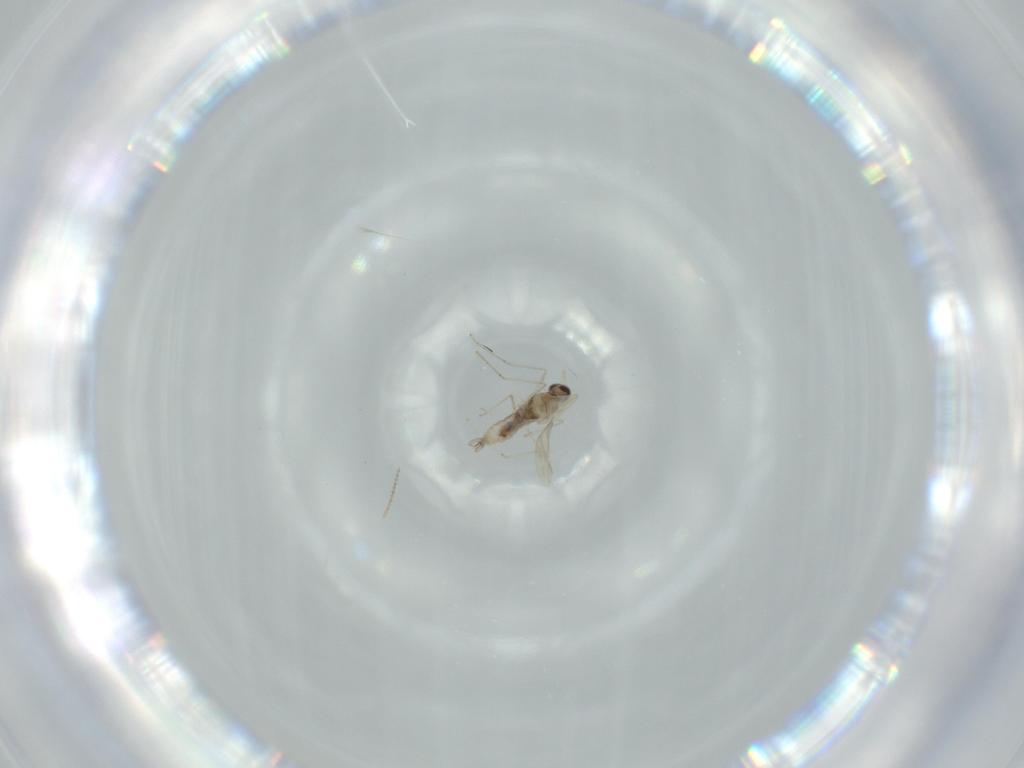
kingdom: Animalia
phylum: Arthropoda
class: Insecta
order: Diptera
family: Cecidomyiidae
